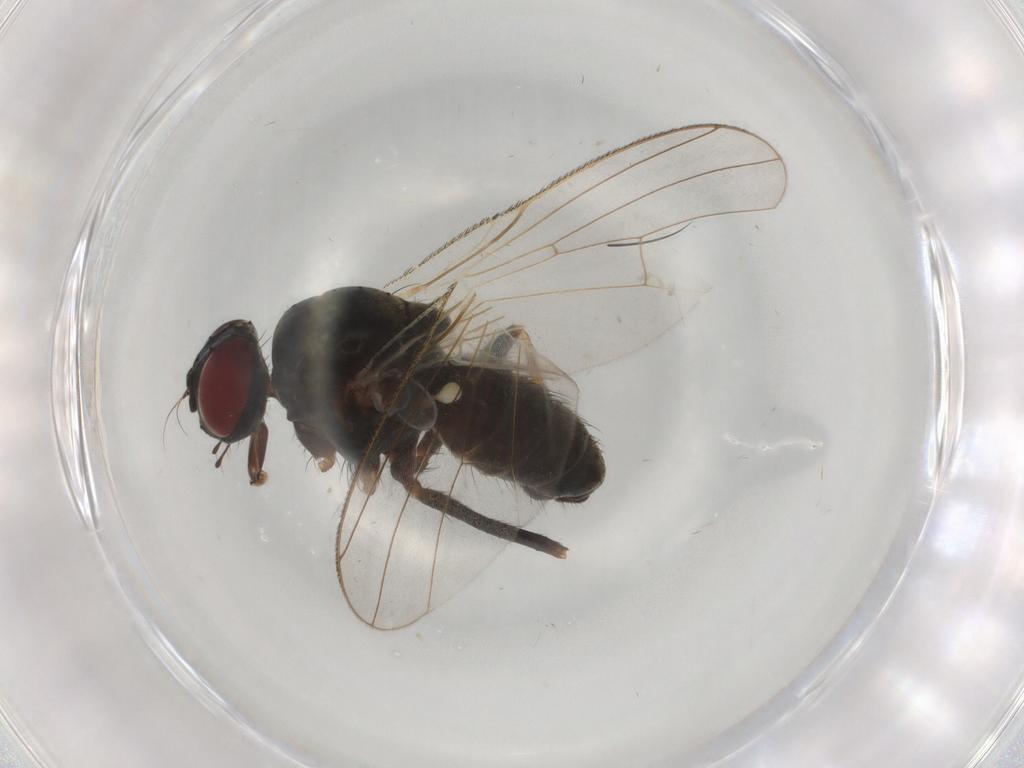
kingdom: Animalia
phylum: Arthropoda
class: Insecta
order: Diptera
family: Muscidae
